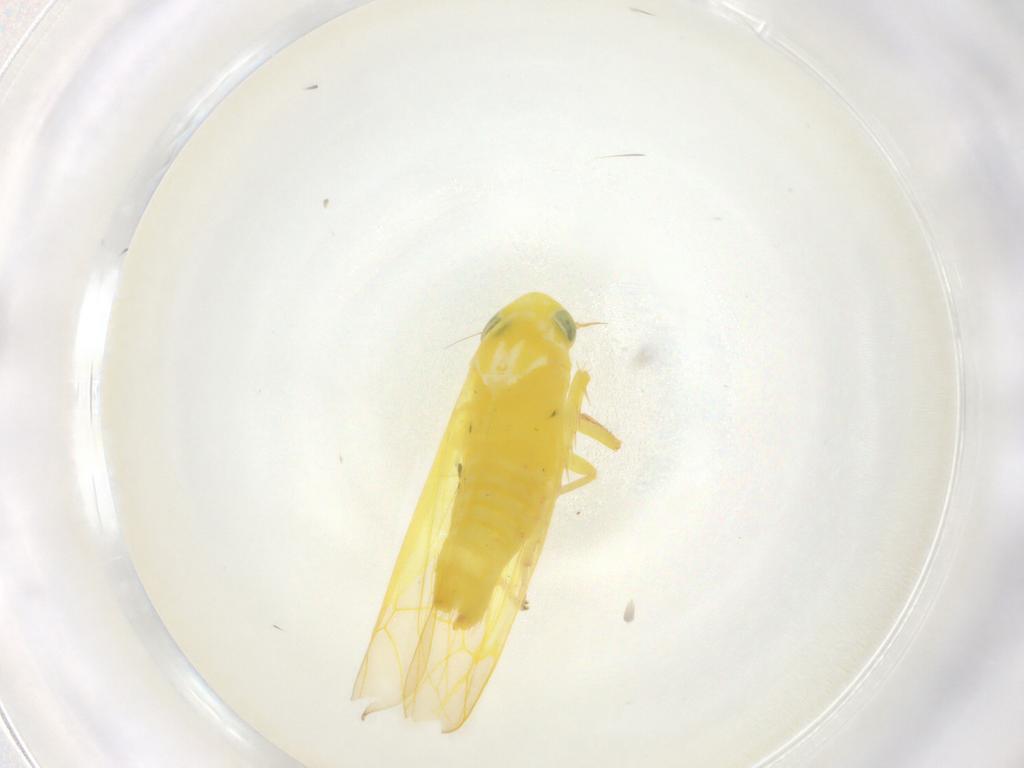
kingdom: Animalia
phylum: Arthropoda
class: Insecta
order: Hemiptera
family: Cicadellidae
